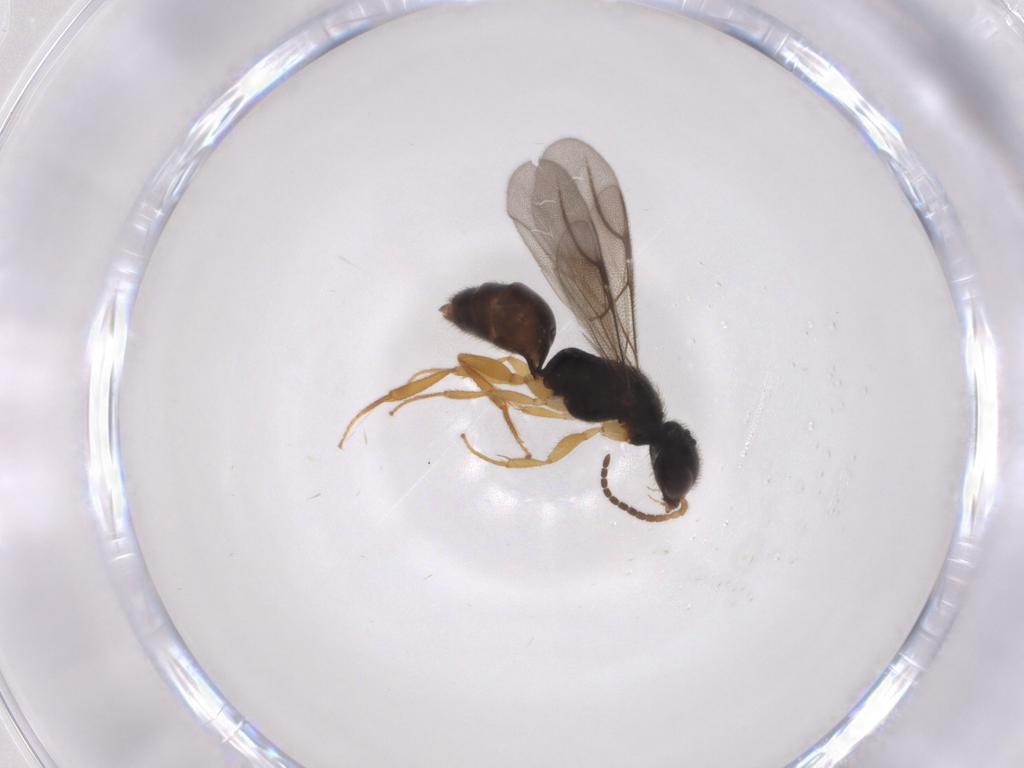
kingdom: Animalia
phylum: Arthropoda
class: Insecta
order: Hymenoptera
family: Bethylidae
